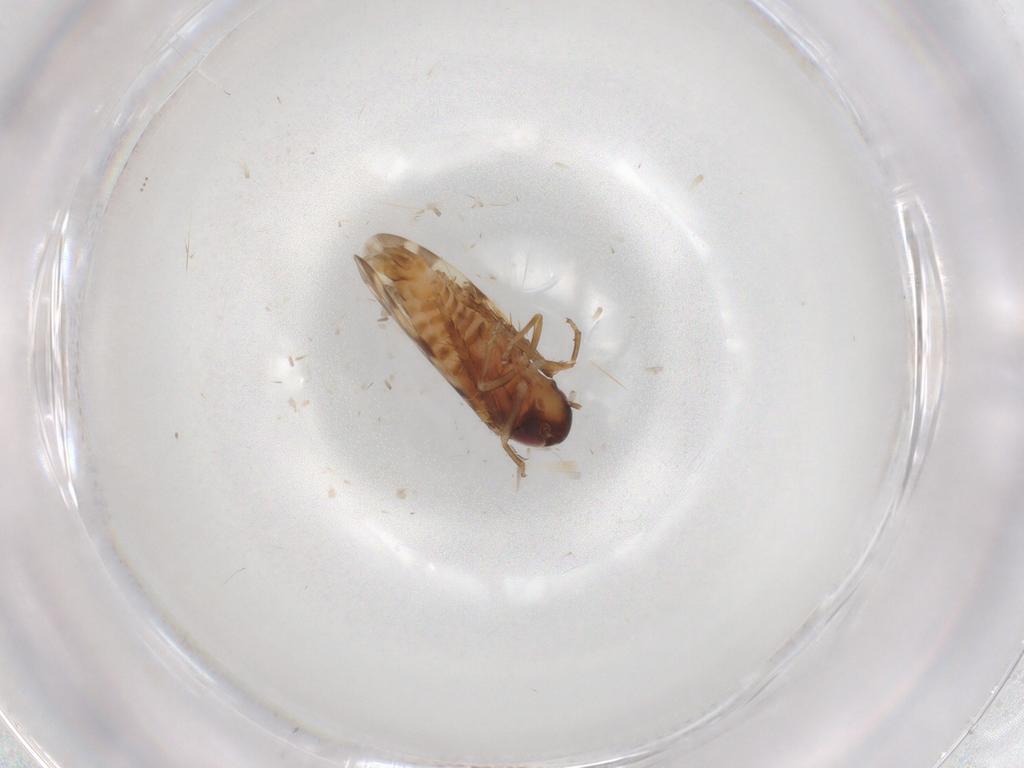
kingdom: Animalia
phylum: Arthropoda
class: Insecta
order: Hemiptera
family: Cicadellidae
